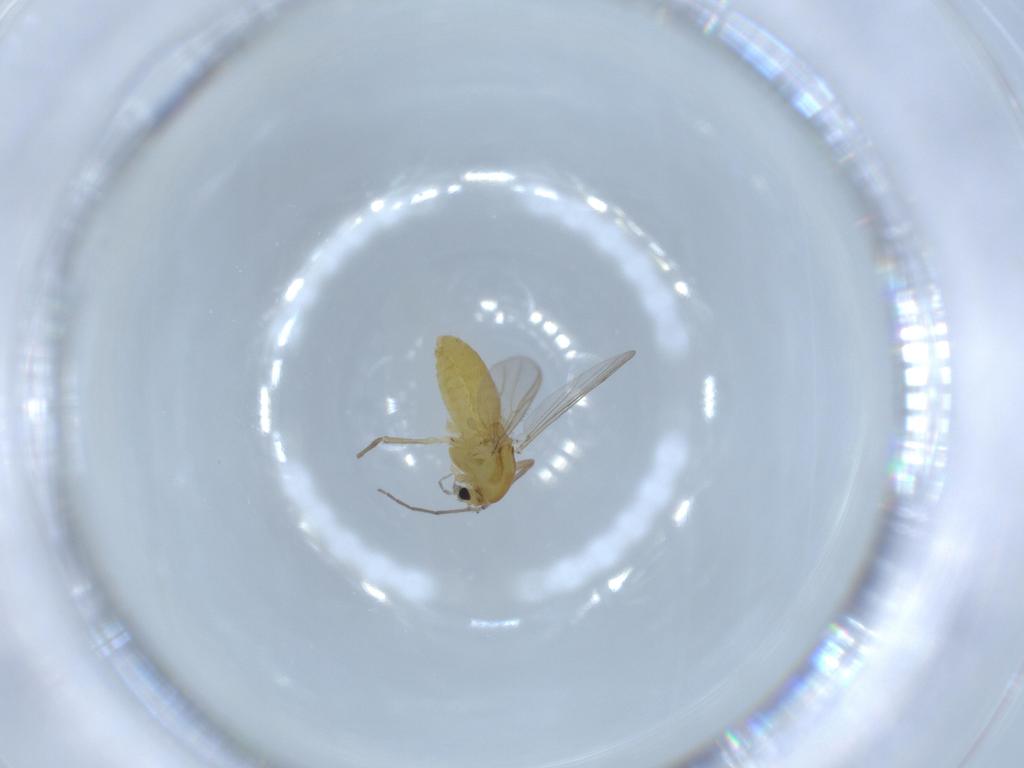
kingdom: Animalia
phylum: Arthropoda
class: Insecta
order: Diptera
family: Chironomidae
